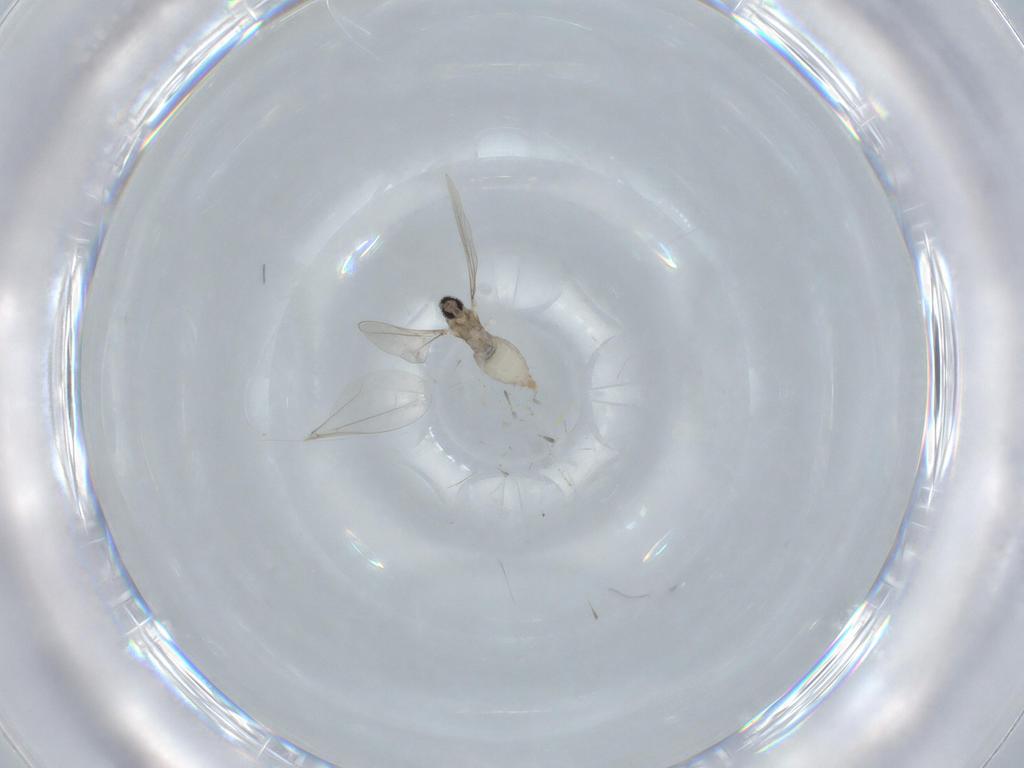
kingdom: Animalia
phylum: Arthropoda
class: Insecta
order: Diptera
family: Cecidomyiidae
